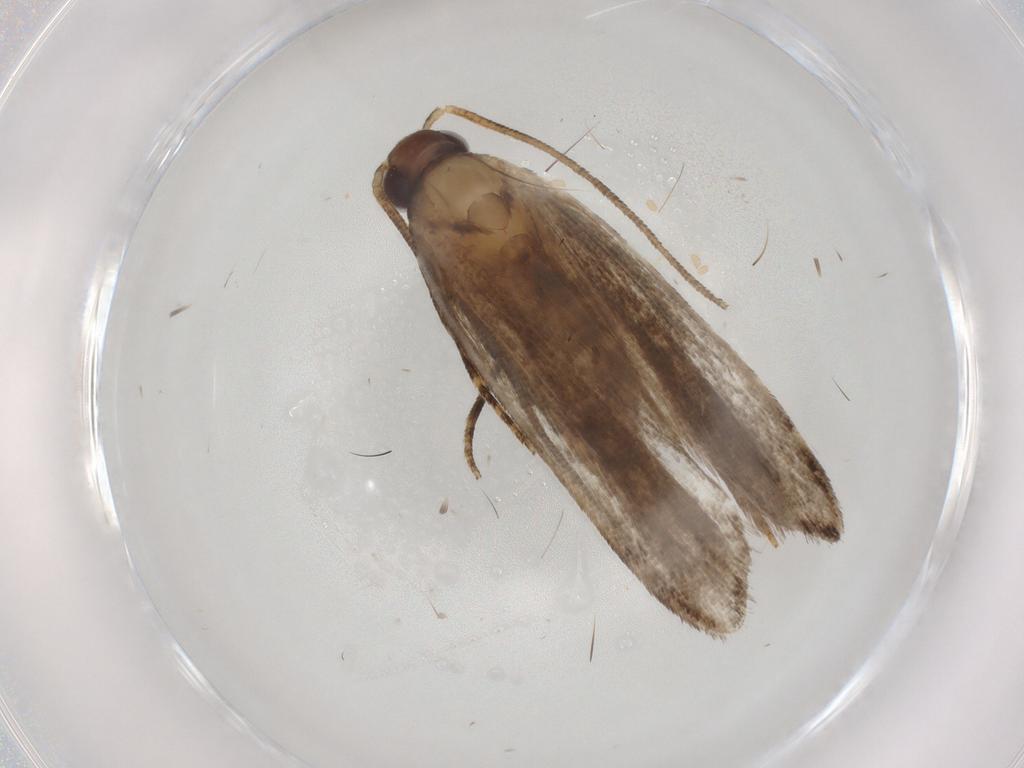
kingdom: Animalia
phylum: Arthropoda
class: Insecta
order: Lepidoptera
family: Gelechiidae
